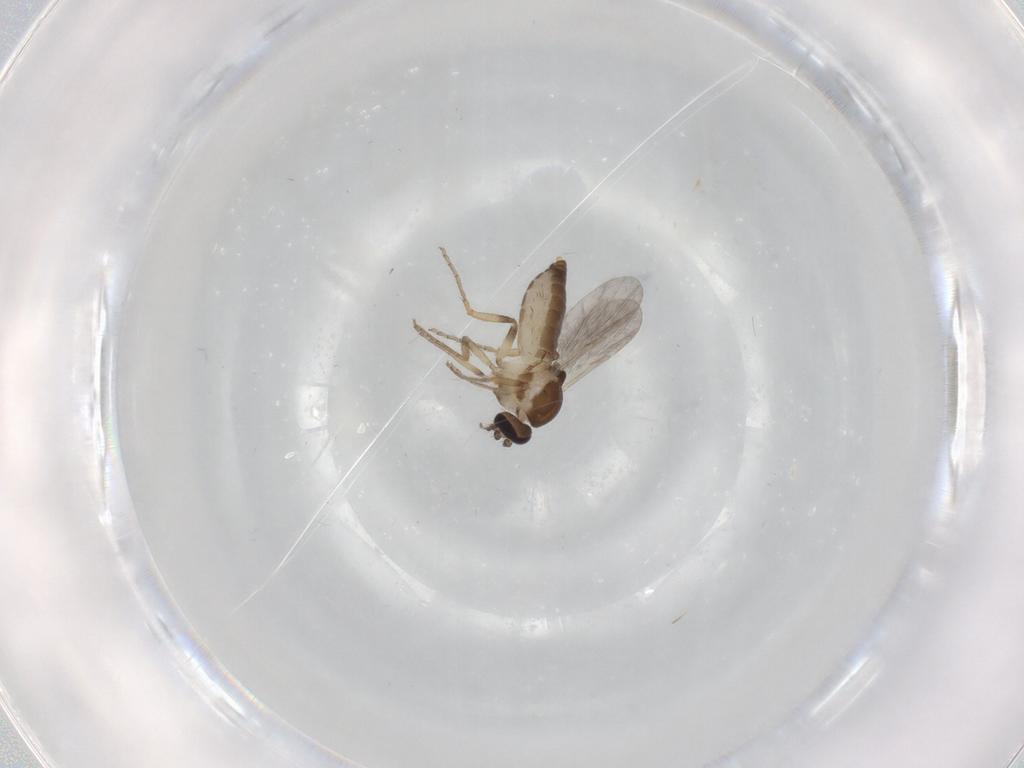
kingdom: Animalia
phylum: Arthropoda
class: Insecta
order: Diptera
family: Ceratopogonidae
